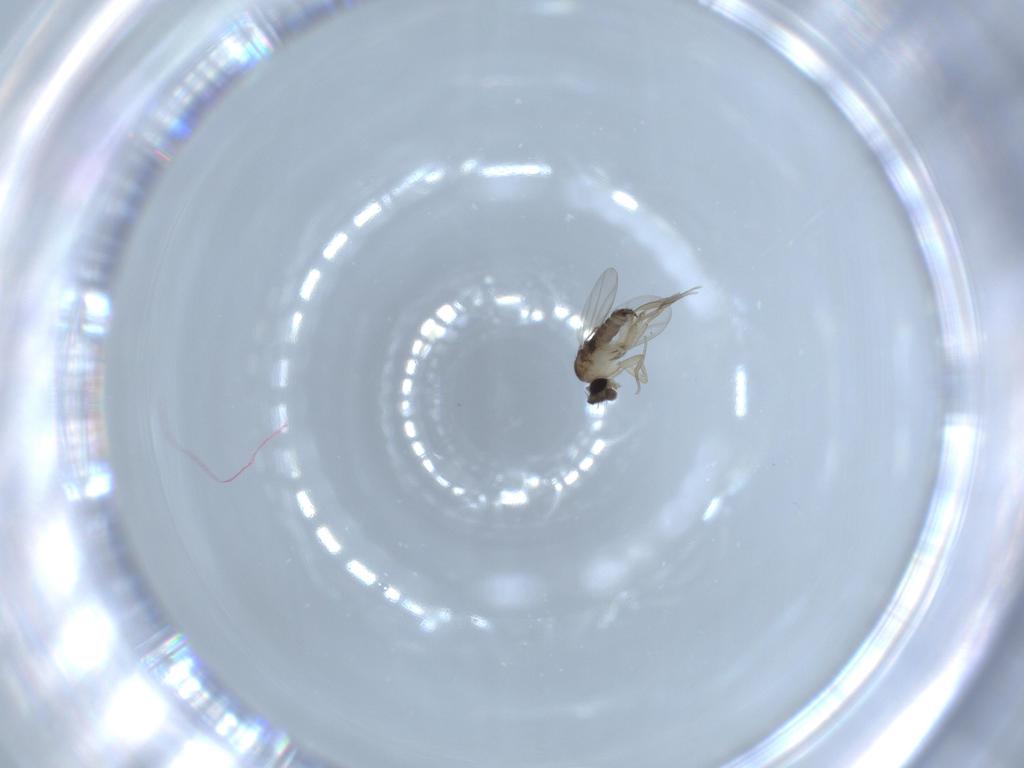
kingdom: Animalia
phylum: Arthropoda
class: Insecta
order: Diptera
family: Phoridae
